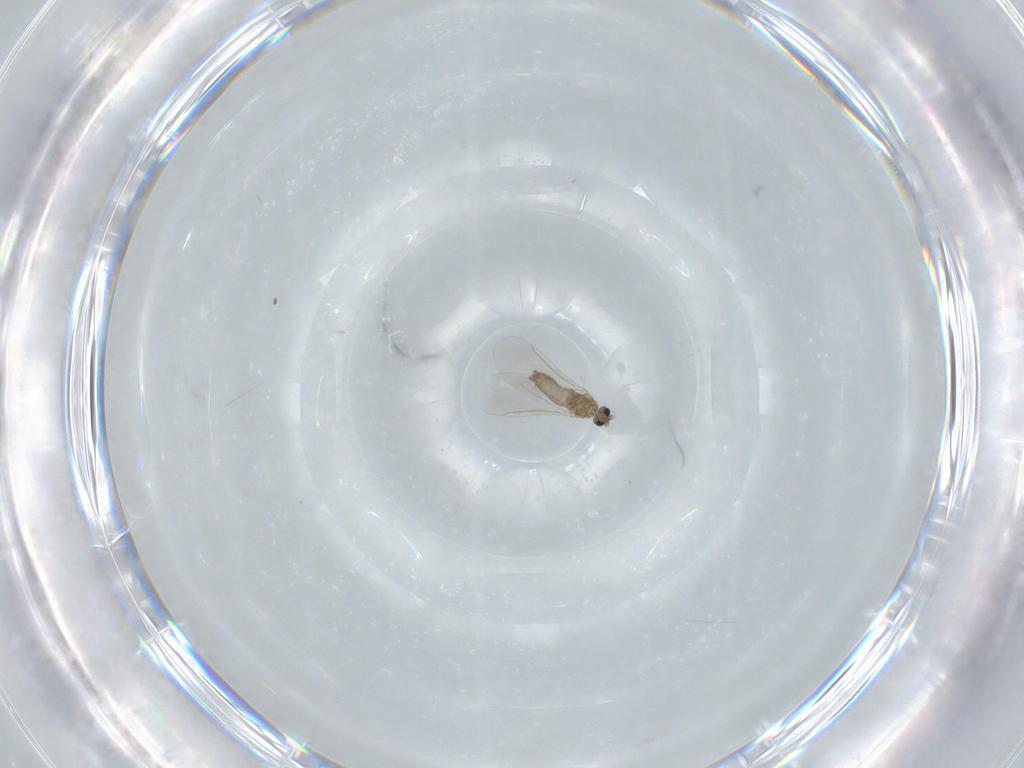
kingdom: Animalia
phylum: Arthropoda
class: Insecta
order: Diptera
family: Cecidomyiidae
